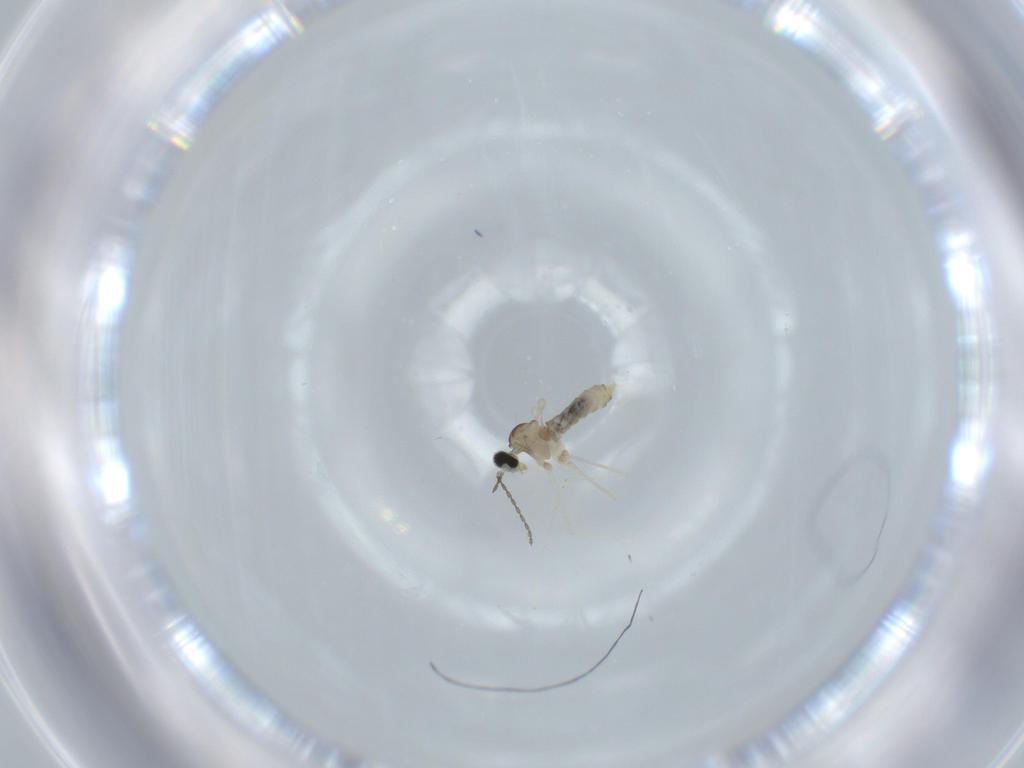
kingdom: Animalia
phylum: Arthropoda
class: Insecta
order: Diptera
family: Cecidomyiidae
